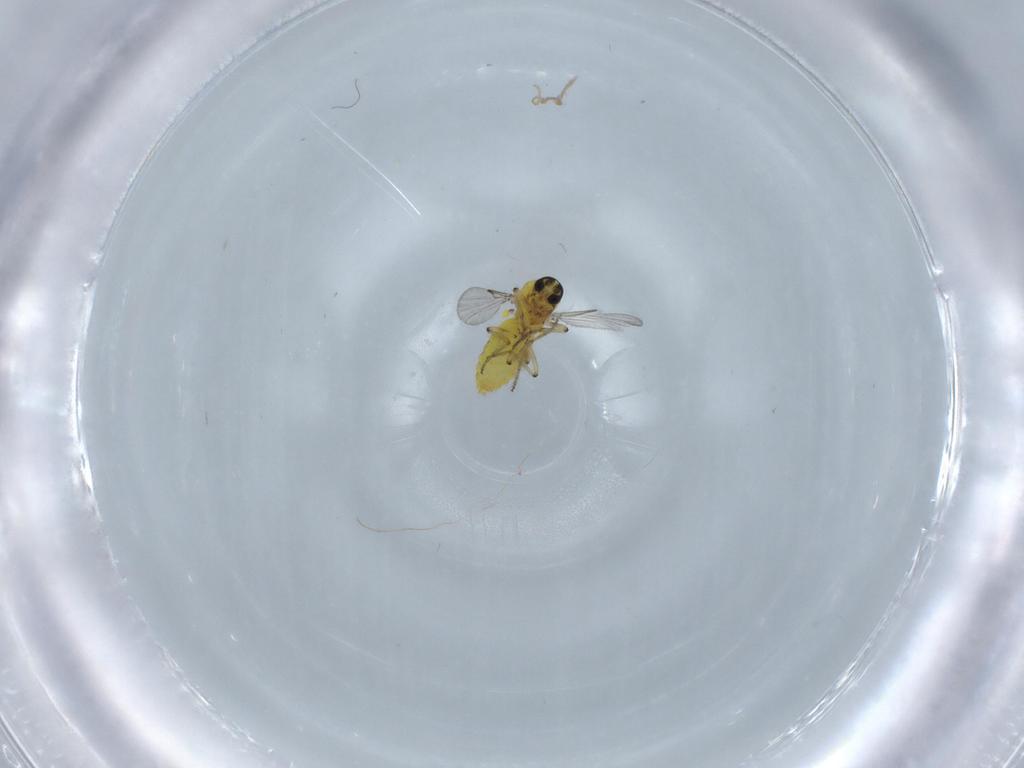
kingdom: Animalia
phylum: Arthropoda
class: Insecta
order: Diptera
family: Ceratopogonidae
